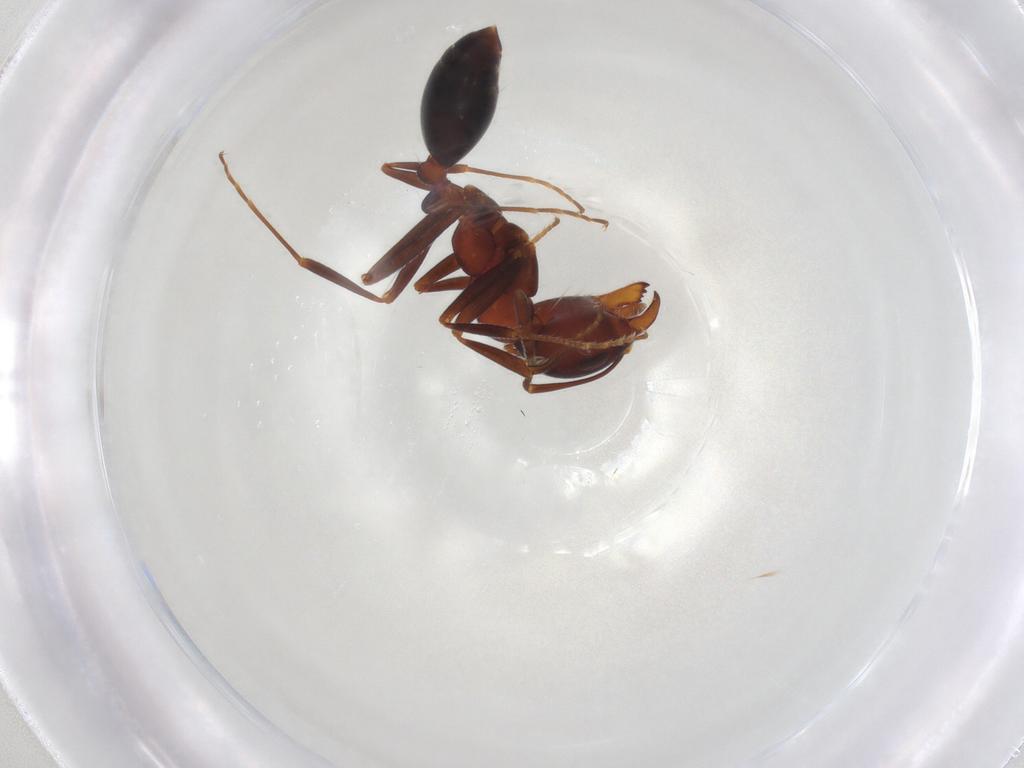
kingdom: Animalia
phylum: Arthropoda
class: Insecta
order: Hymenoptera
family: Formicidae
